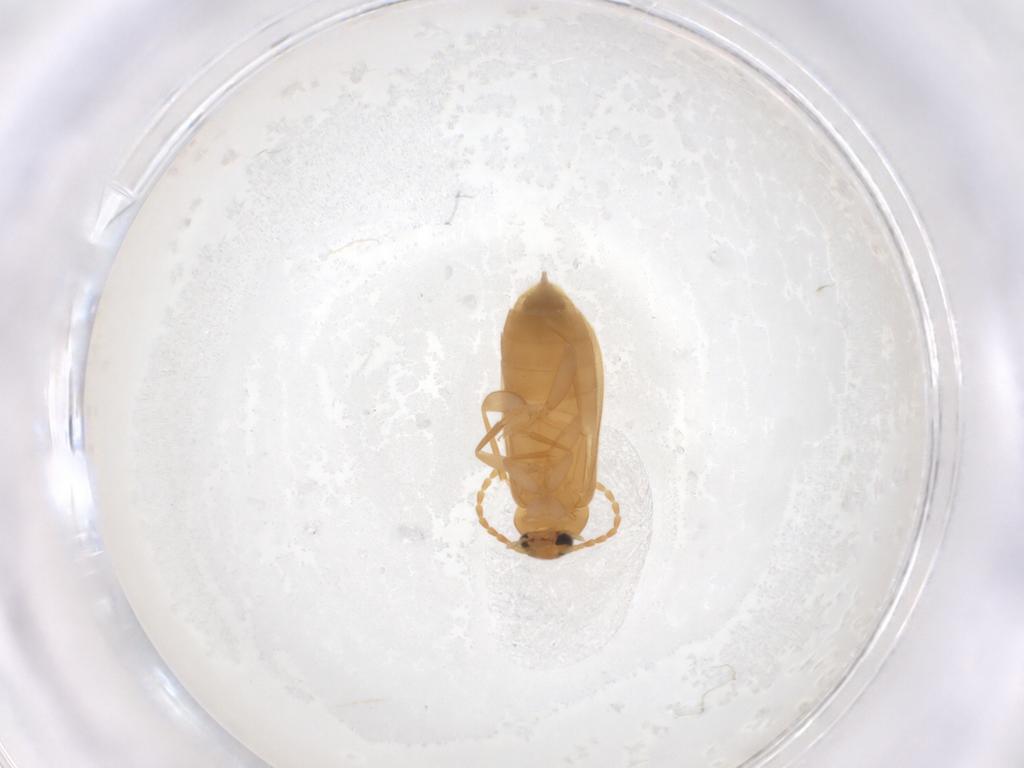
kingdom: Animalia
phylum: Arthropoda
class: Insecta
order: Coleoptera
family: Scraptiidae
